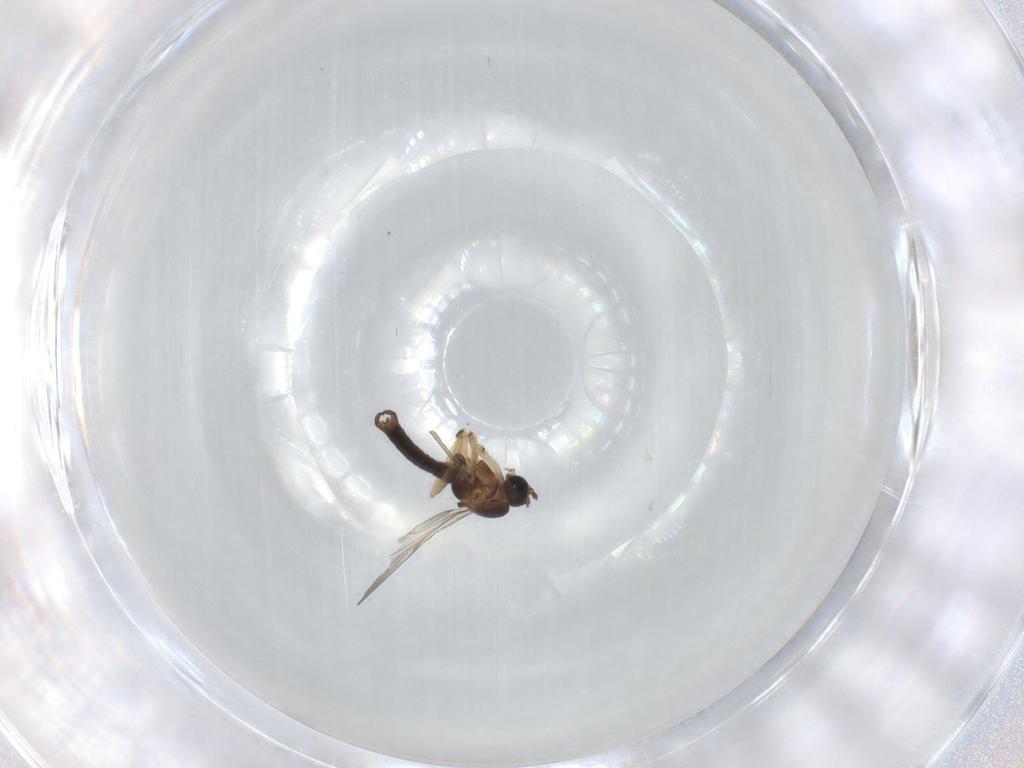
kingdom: Animalia
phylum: Arthropoda
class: Insecta
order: Diptera
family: Sciaridae
